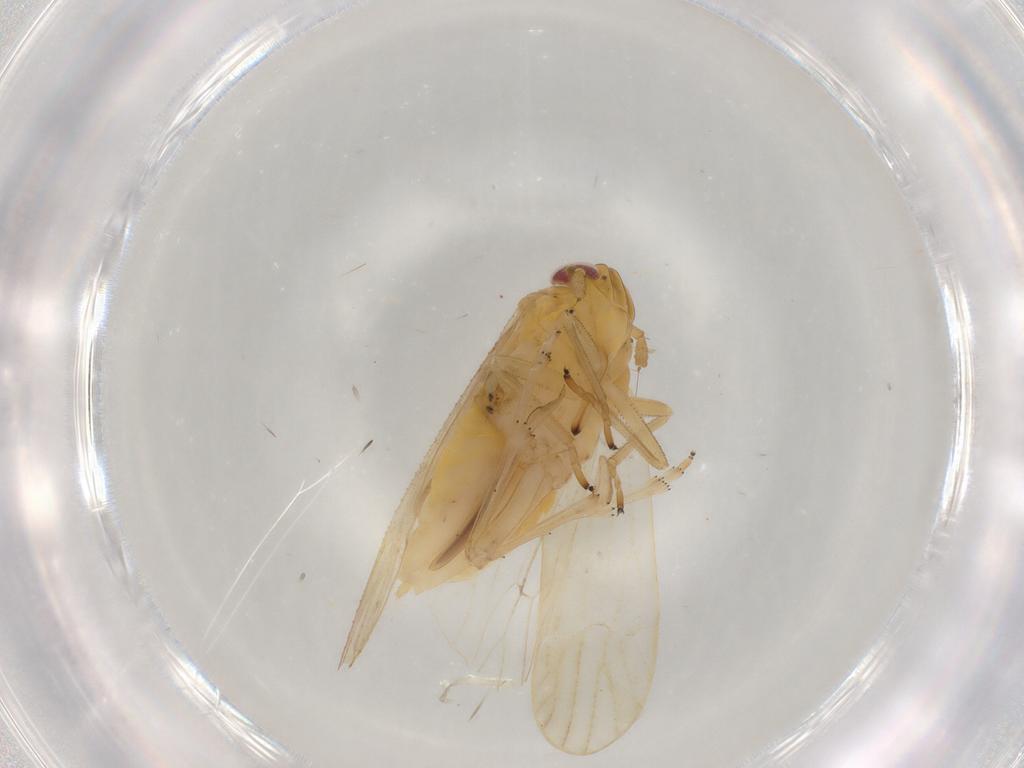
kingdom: Animalia
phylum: Arthropoda
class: Insecta
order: Hemiptera
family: Delphacidae
